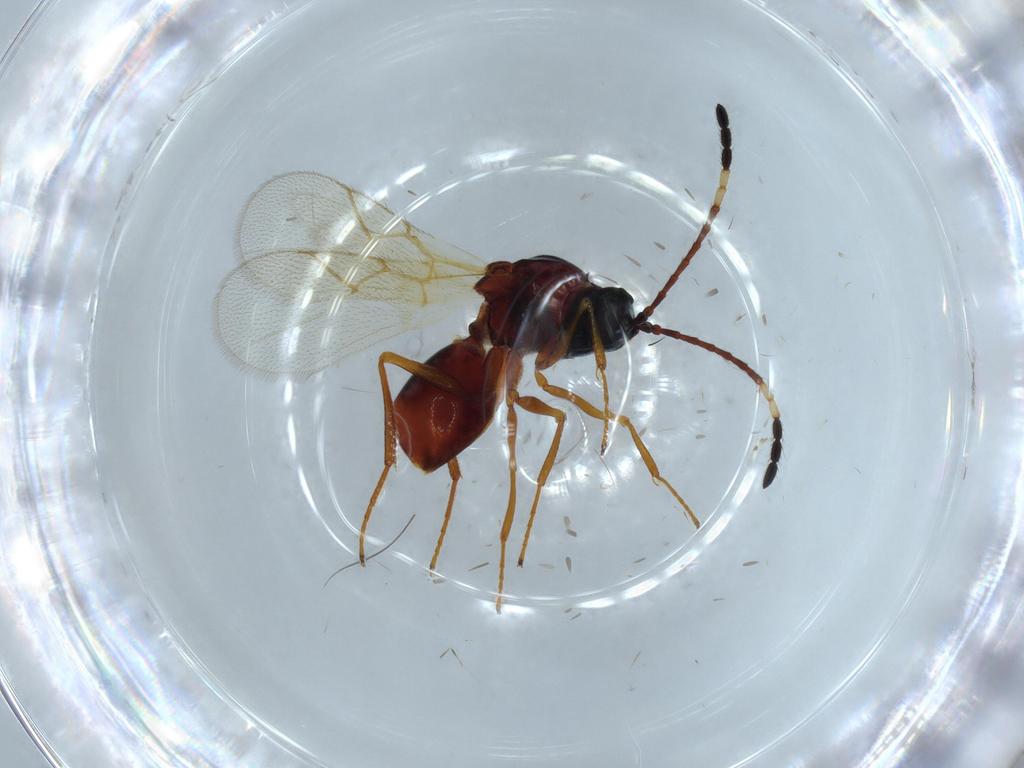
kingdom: Animalia
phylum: Arthropoda
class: Insecta
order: Hymenoptera
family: Figitidae
